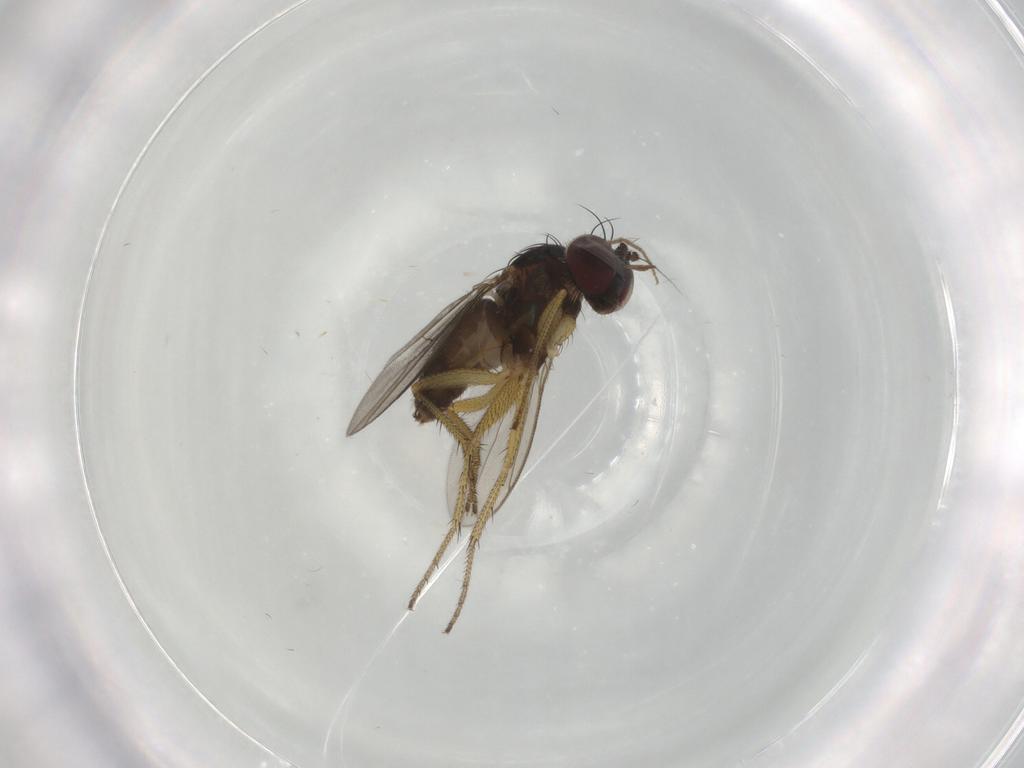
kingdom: Animalia
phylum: Arthropoda
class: Insecta
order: Diptera
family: Dolichopodidae
